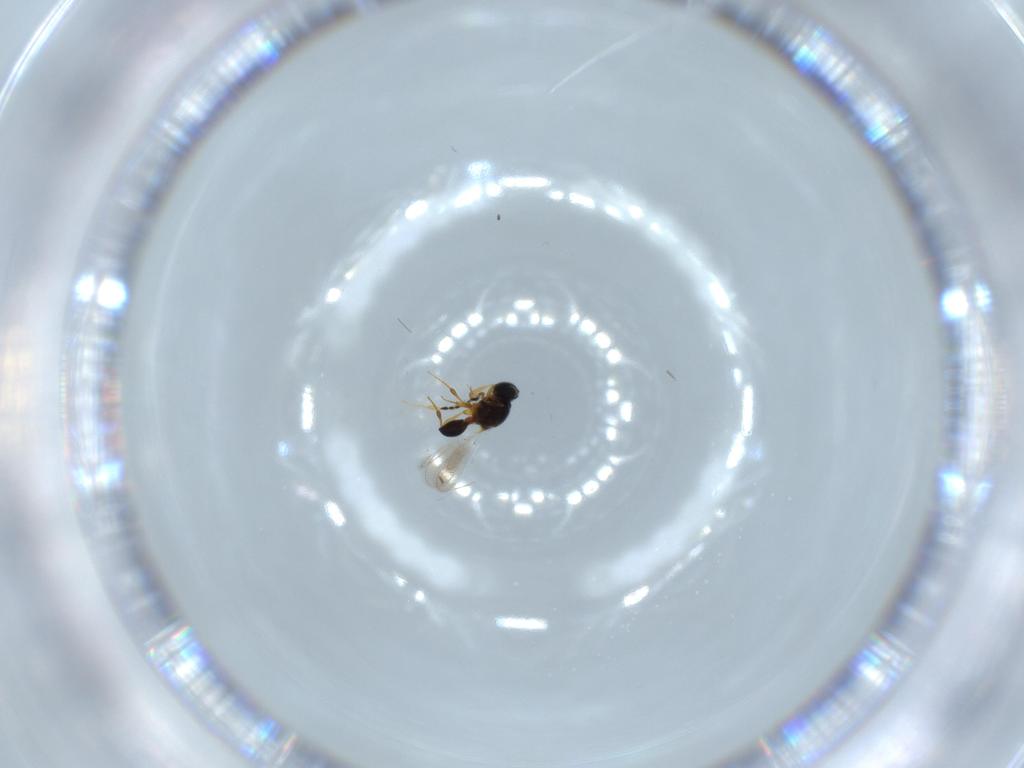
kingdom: Animalia
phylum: Arthropoda
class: Insecta
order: Hymenoptera
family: Platygastridae
